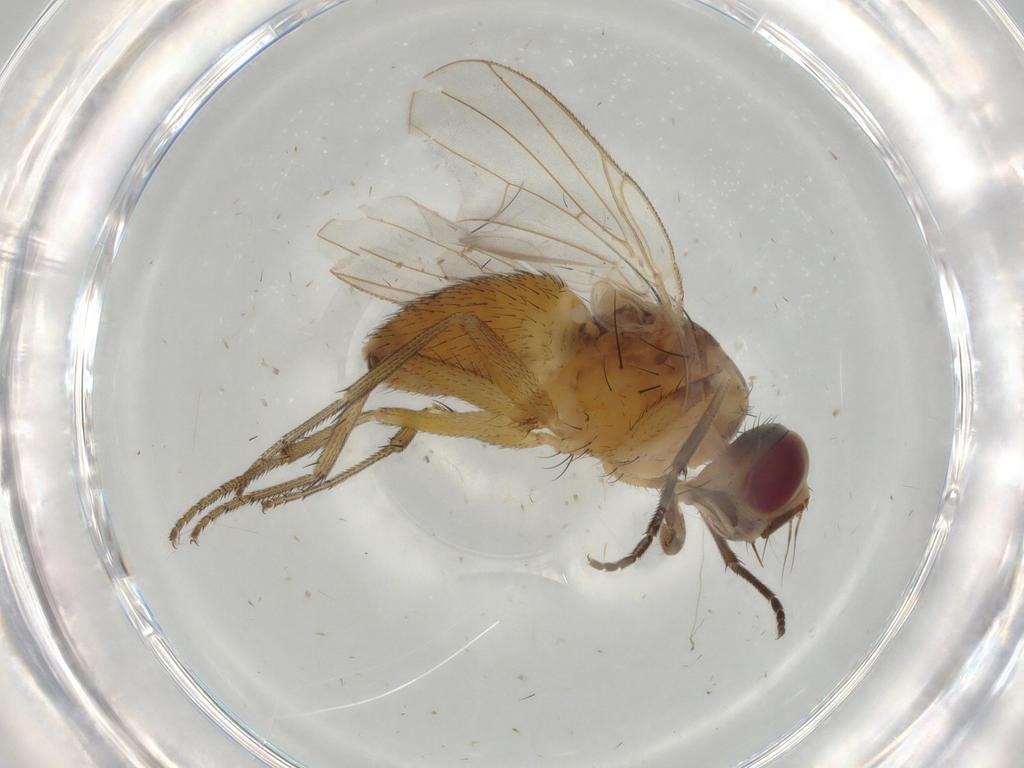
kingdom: Animalia
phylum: Arthropoda
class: Insecta
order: Diptera
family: Muscidae
